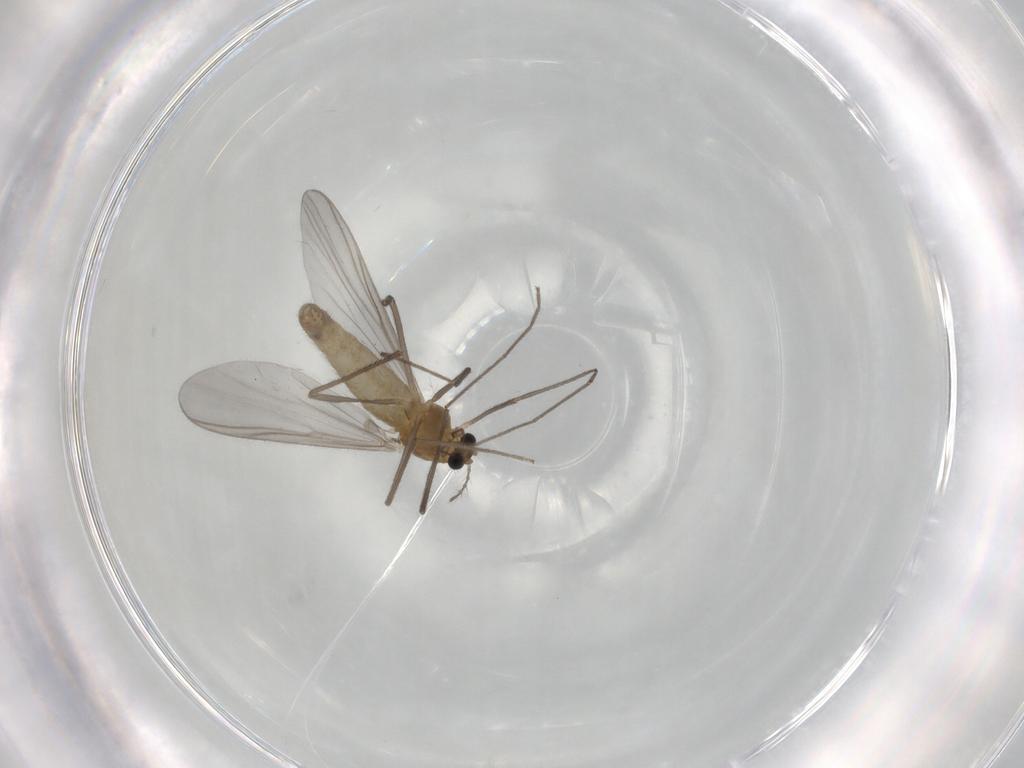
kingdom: Animalia
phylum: Arthropoda
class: Insecta
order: Diptera
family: Chironomidae
